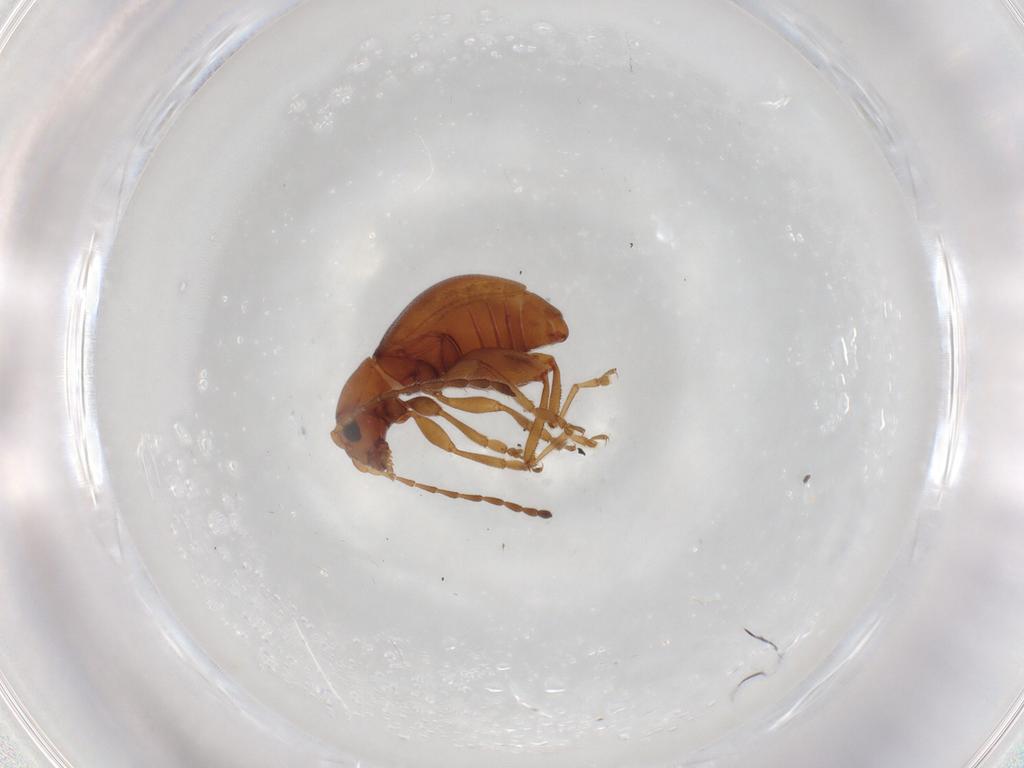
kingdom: Animalia
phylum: Arthropoda
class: Insecta
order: Coleoptera
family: Chrysomelidae
